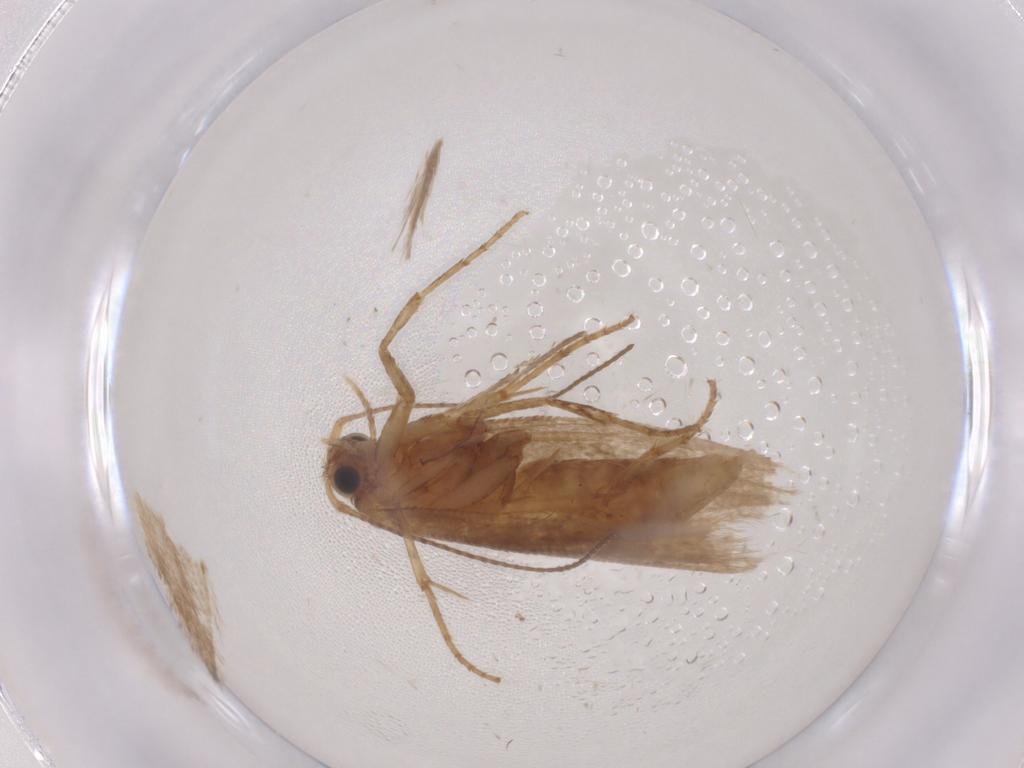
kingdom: Animalia
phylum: Arthropoda
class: Insecta
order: Lepidoptera
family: Argyresthiidae
